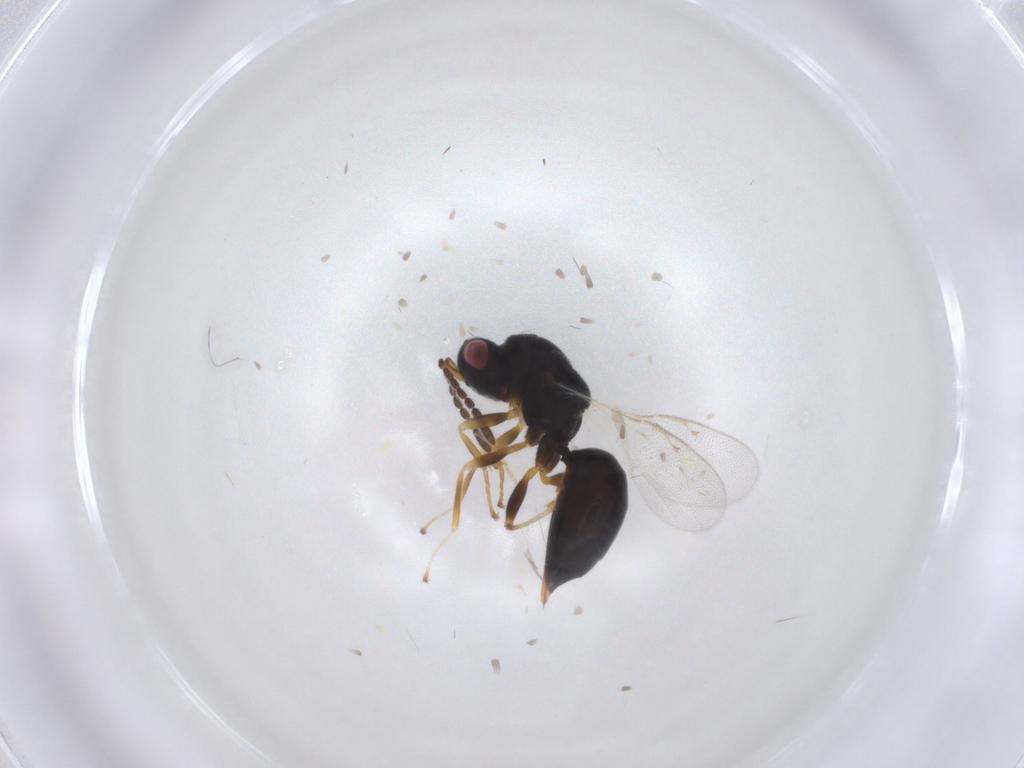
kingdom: Animalia
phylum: Arthropoda
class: Insecta
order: Hymenoptera
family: Eurytomidae
